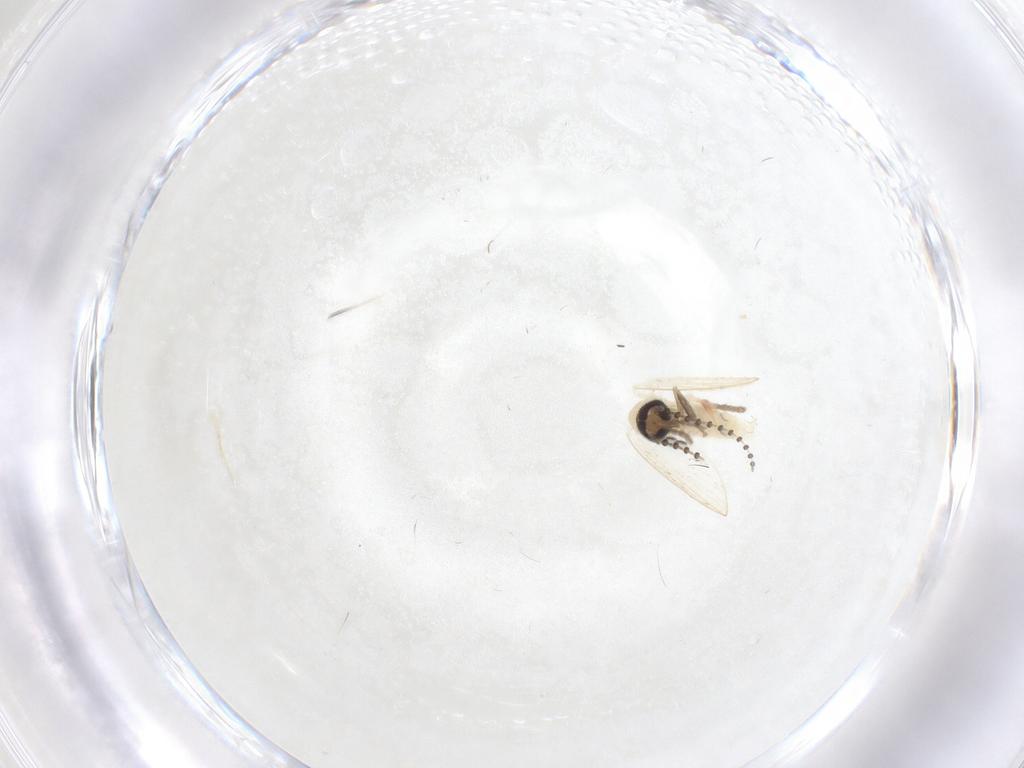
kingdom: Animalia
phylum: Arthropoda
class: Insecta
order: Diptera
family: Psychodidae
